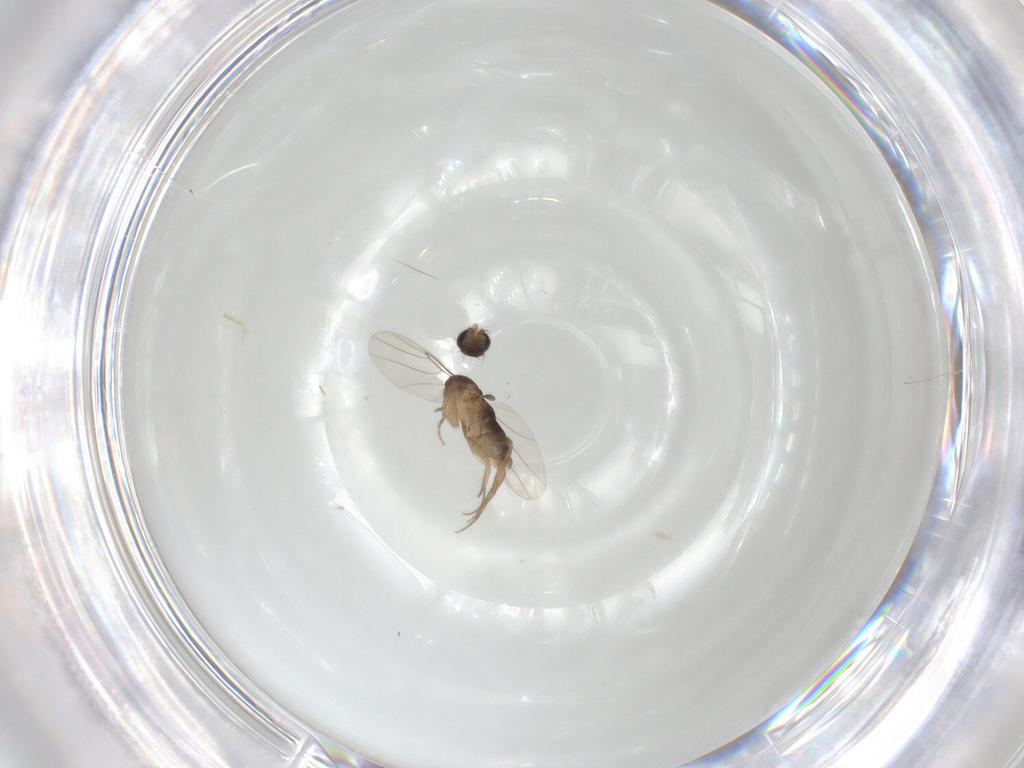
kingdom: Animalia
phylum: Arthropoda
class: Insecta
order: Diptera
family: Phoridae
